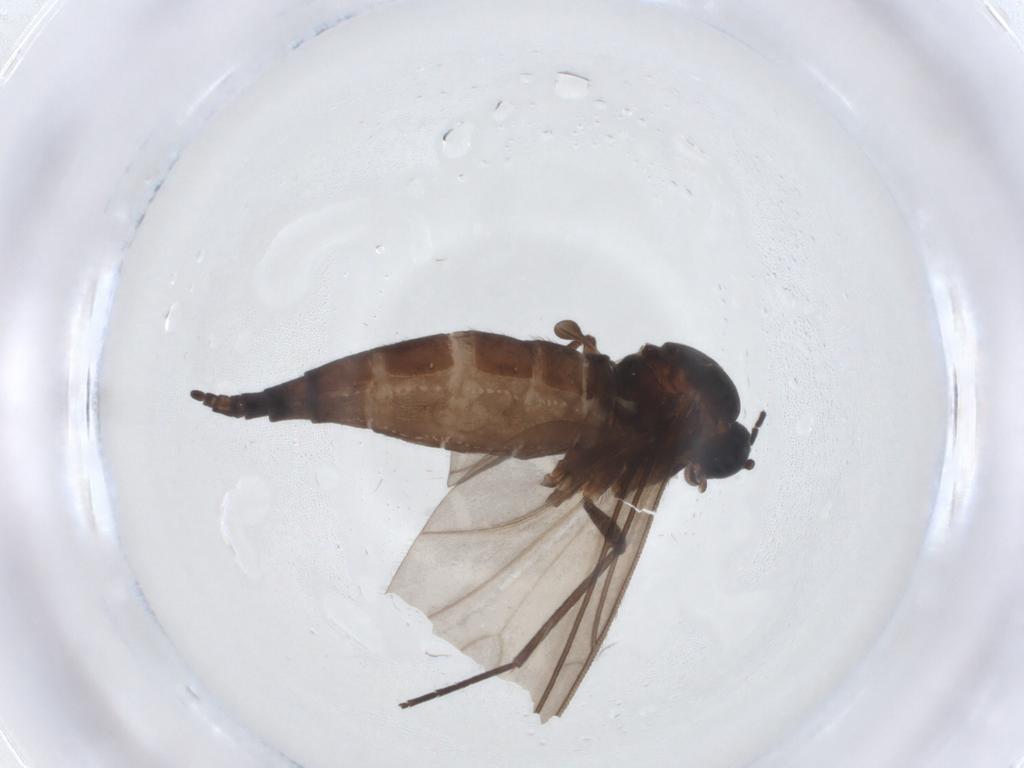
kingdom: Animalia
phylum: Arthropoda
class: Insecta
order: Diptera
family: Sciaridae
